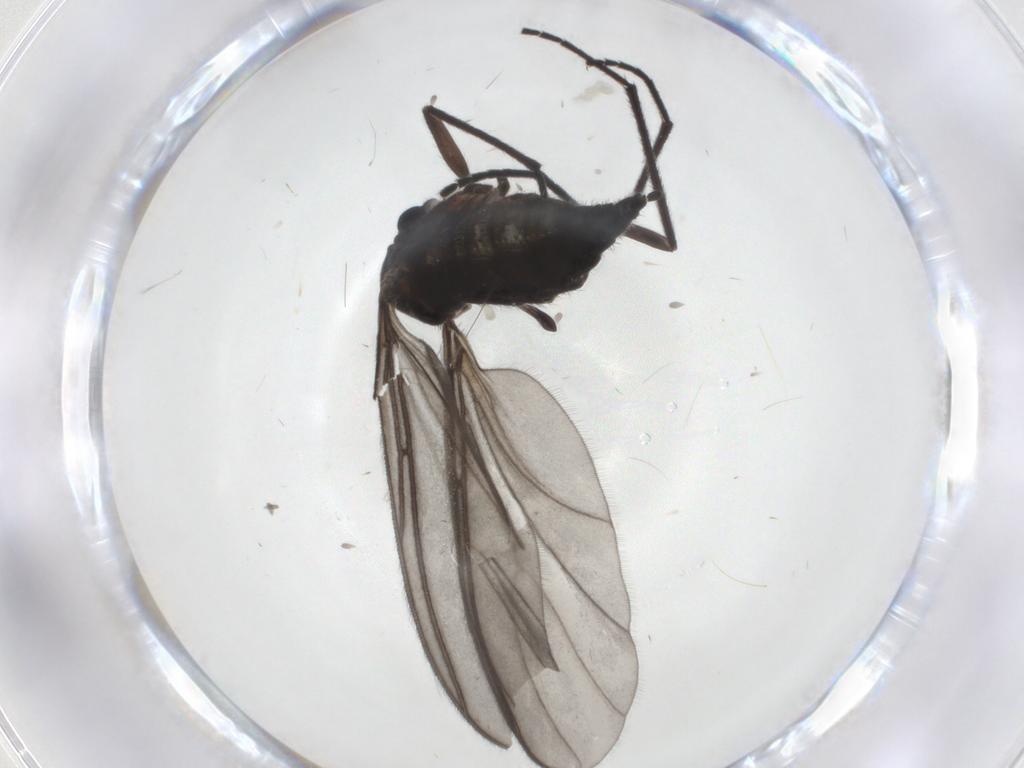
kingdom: Animalia
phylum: Arthropoda
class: Insecta
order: Diptera
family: Sciaridae
